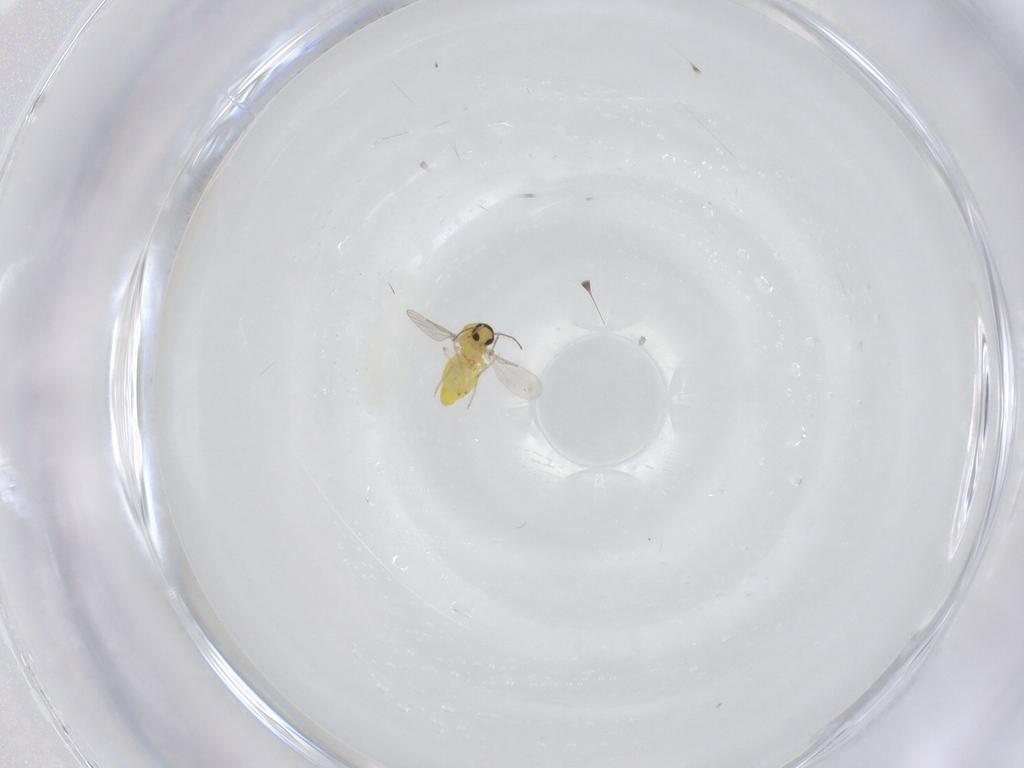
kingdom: Animalia
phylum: Arthropoda
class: Insecta
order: Diptera
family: Ceratopogonidae
